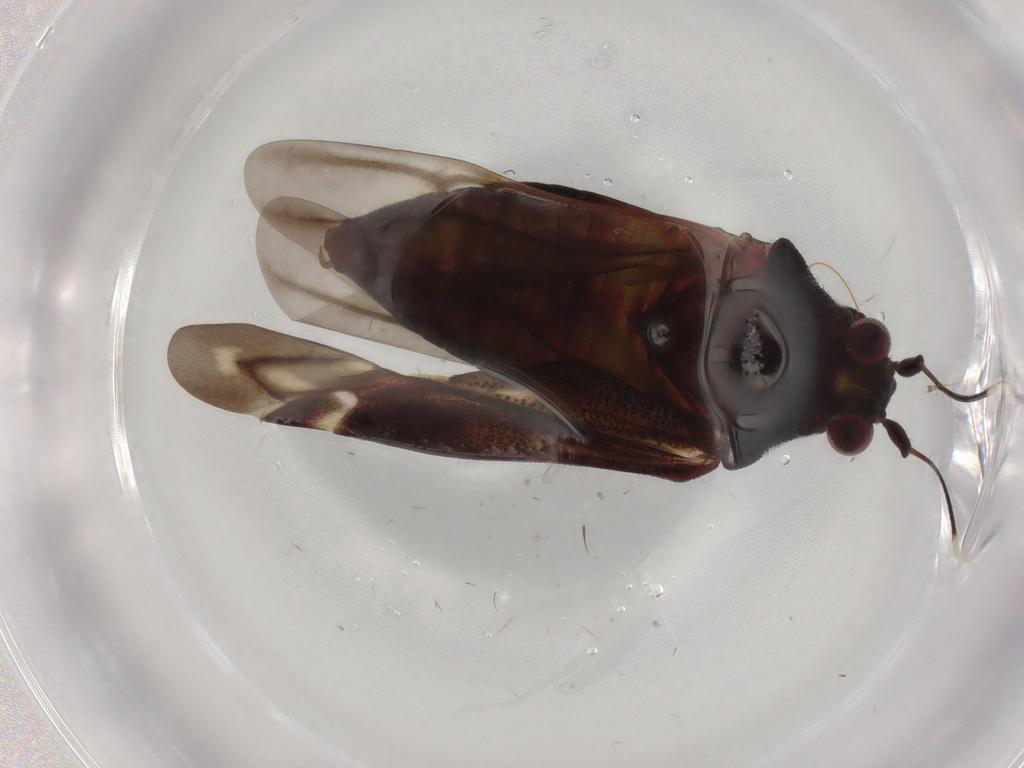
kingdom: Animalia
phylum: Arthropoda
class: Insecta
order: Hemiptera
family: Miridae
